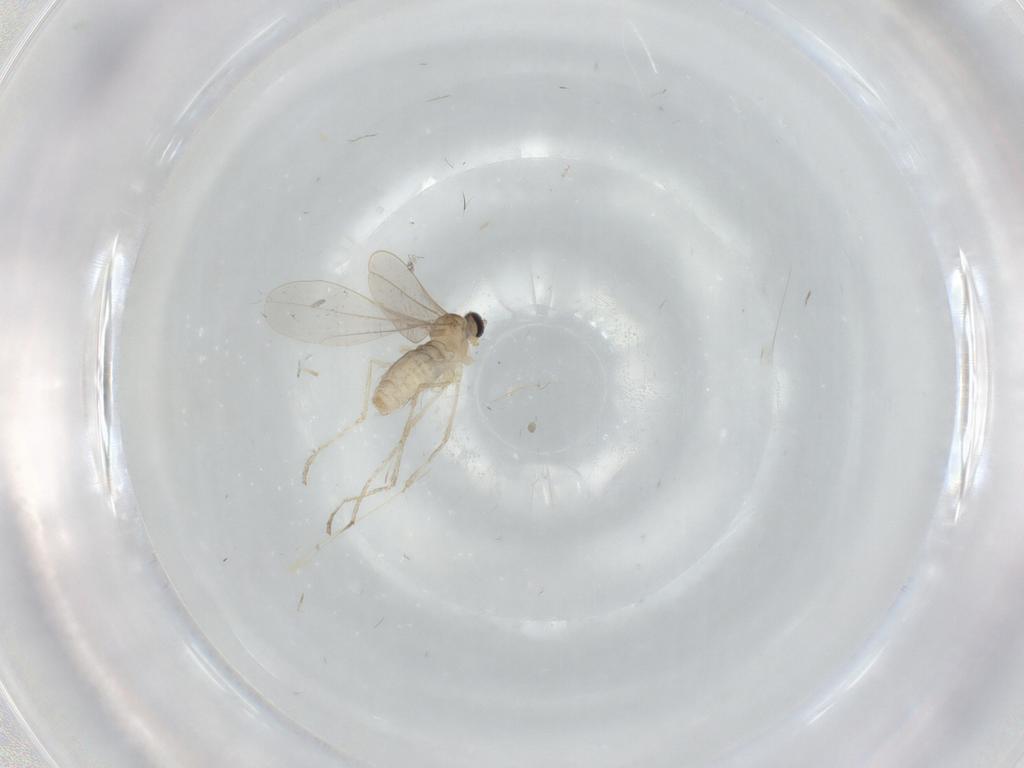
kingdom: Animalia
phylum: Arthropoda
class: Insecta
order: Diptera
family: Cecidomyiidae
